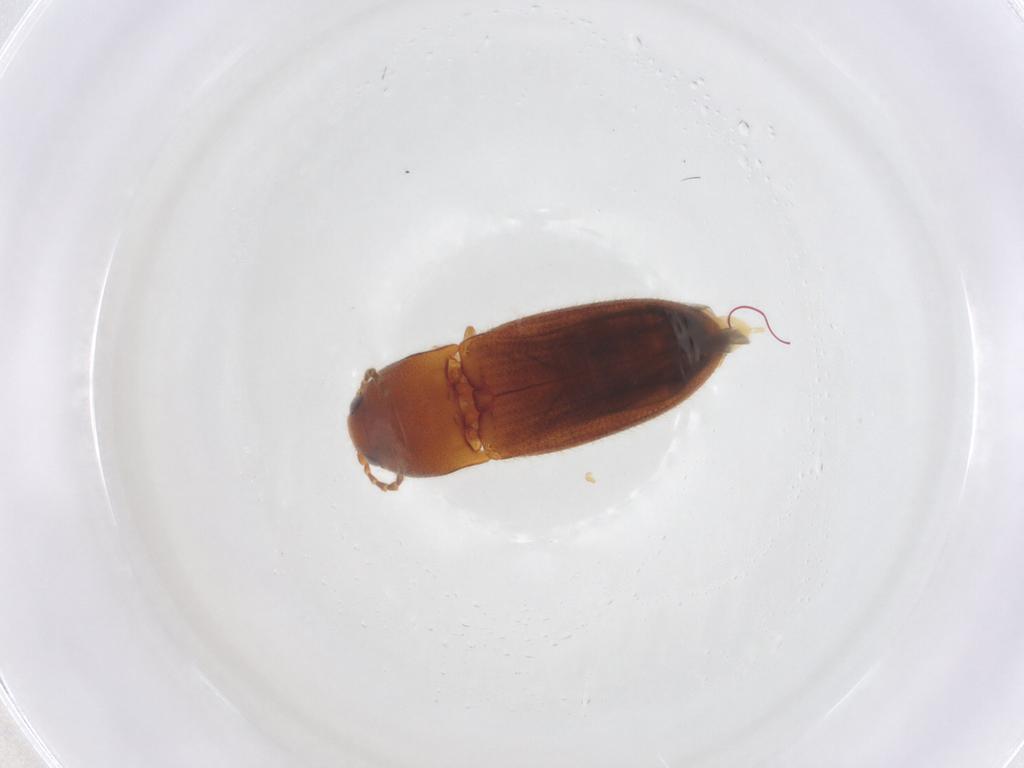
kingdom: Animalia
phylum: Arthropoda
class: Insecta
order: Coleoptera
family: Elateridae
